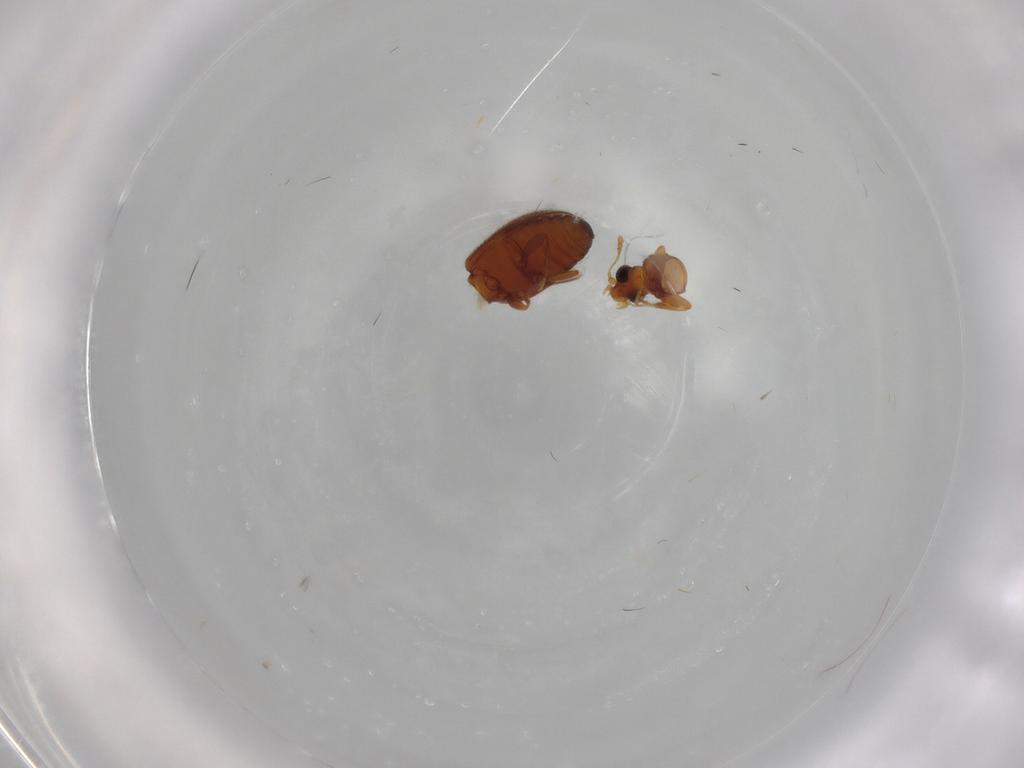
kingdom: Animalia
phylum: Arthropoda
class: Insecta
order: Coleoptera
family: Latridiidae
